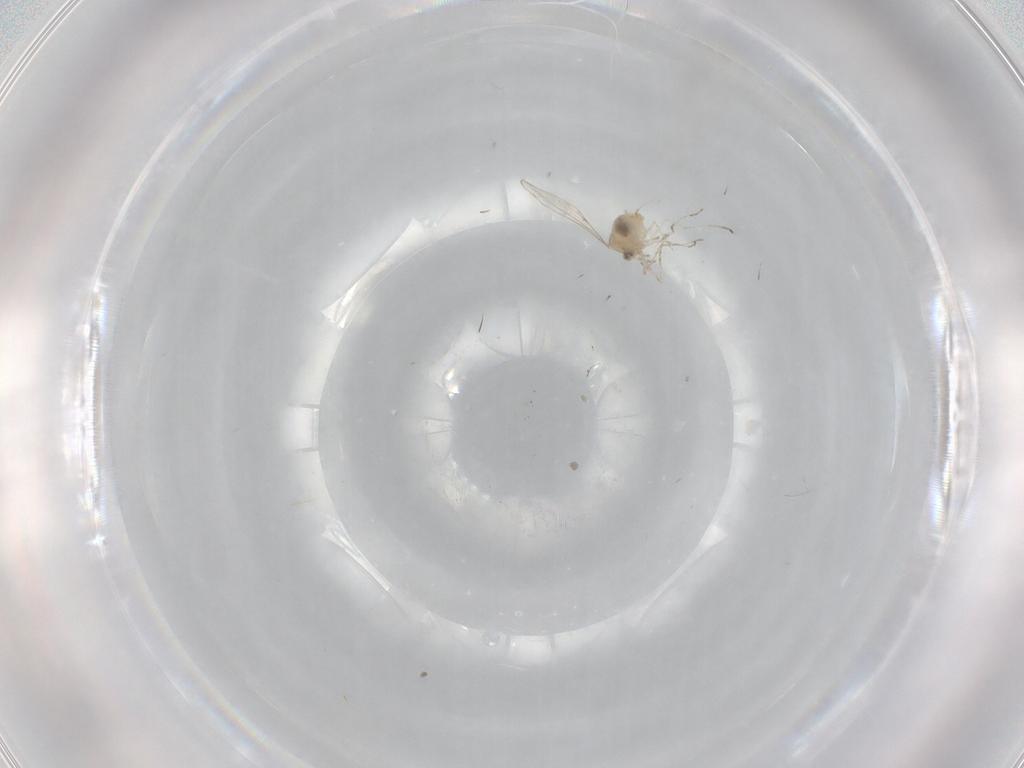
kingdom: Animalia
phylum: Arthropoda
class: Insecta
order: Diptera
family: Cecidomyiidae
